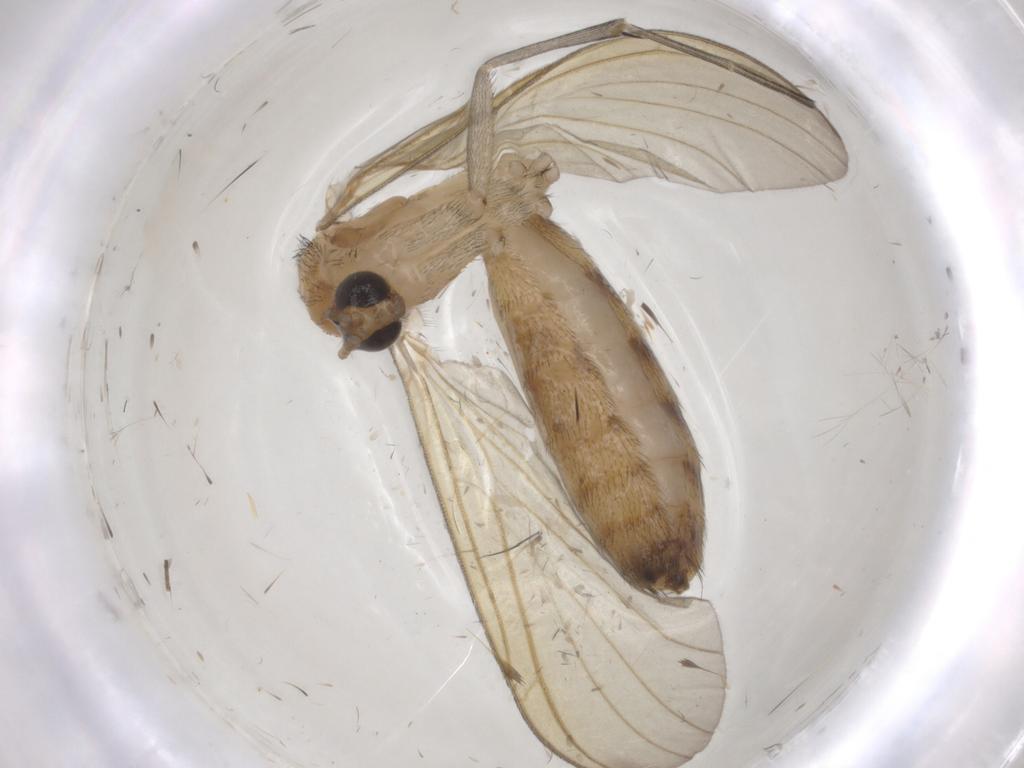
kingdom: Animalia
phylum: Arthropoda
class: Insecta
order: Diptera
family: Keroplatidae
